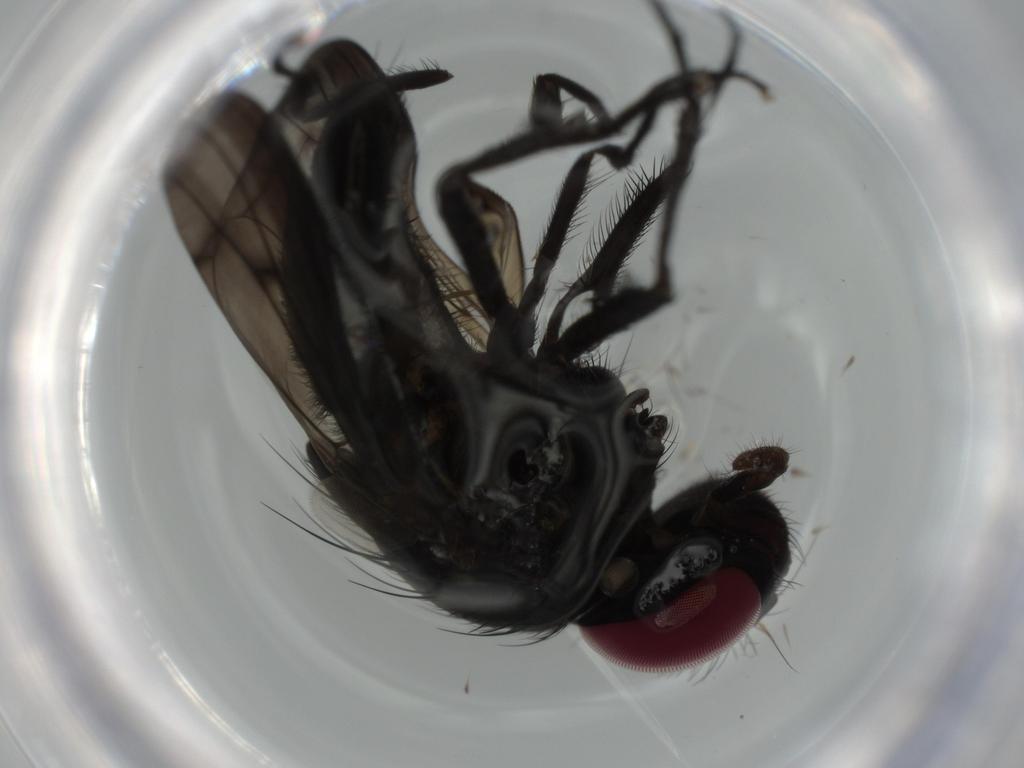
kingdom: Animalia
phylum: Arthropoda
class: Insecta
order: Diptera
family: Fannia
